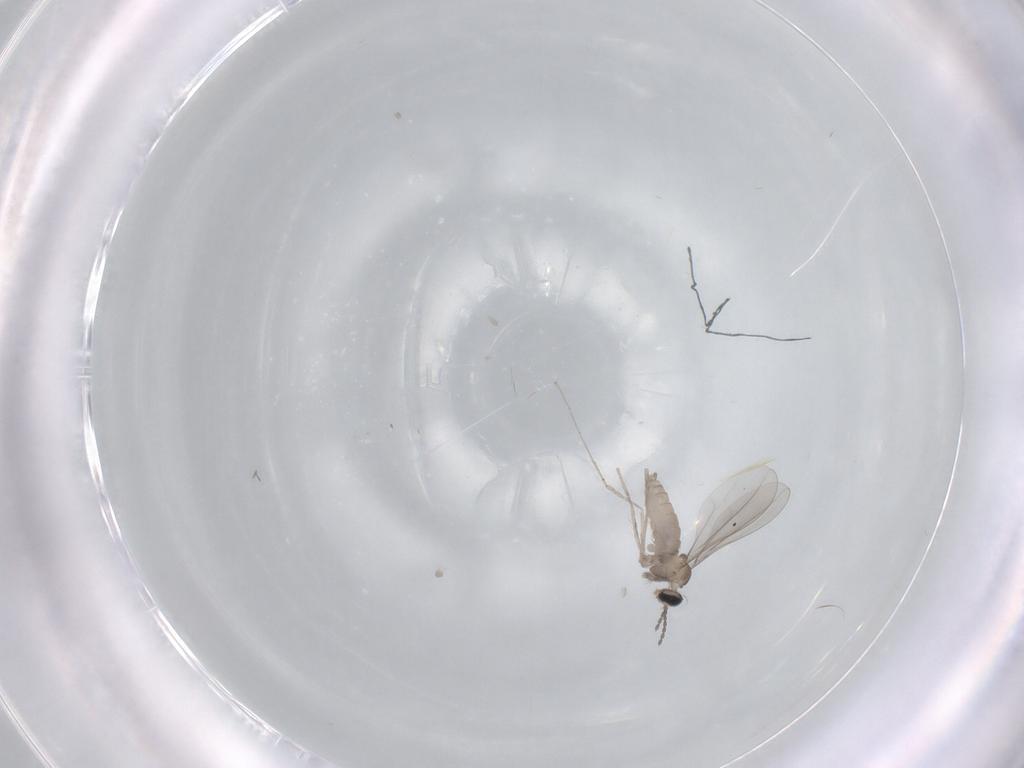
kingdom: Animalia
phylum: Arthropoda
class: Insecta
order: Diptera
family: Cecidomyiidae
